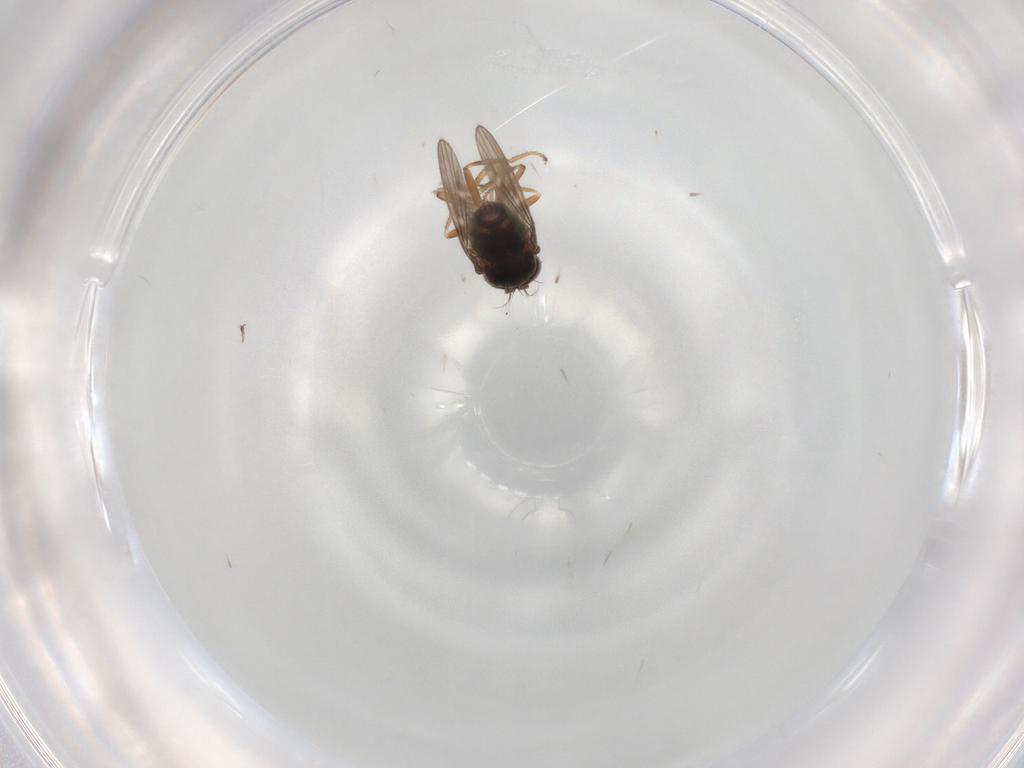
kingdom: Animalia
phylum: Arthropoda
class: Insecta
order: Diptera
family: Ephydridae
